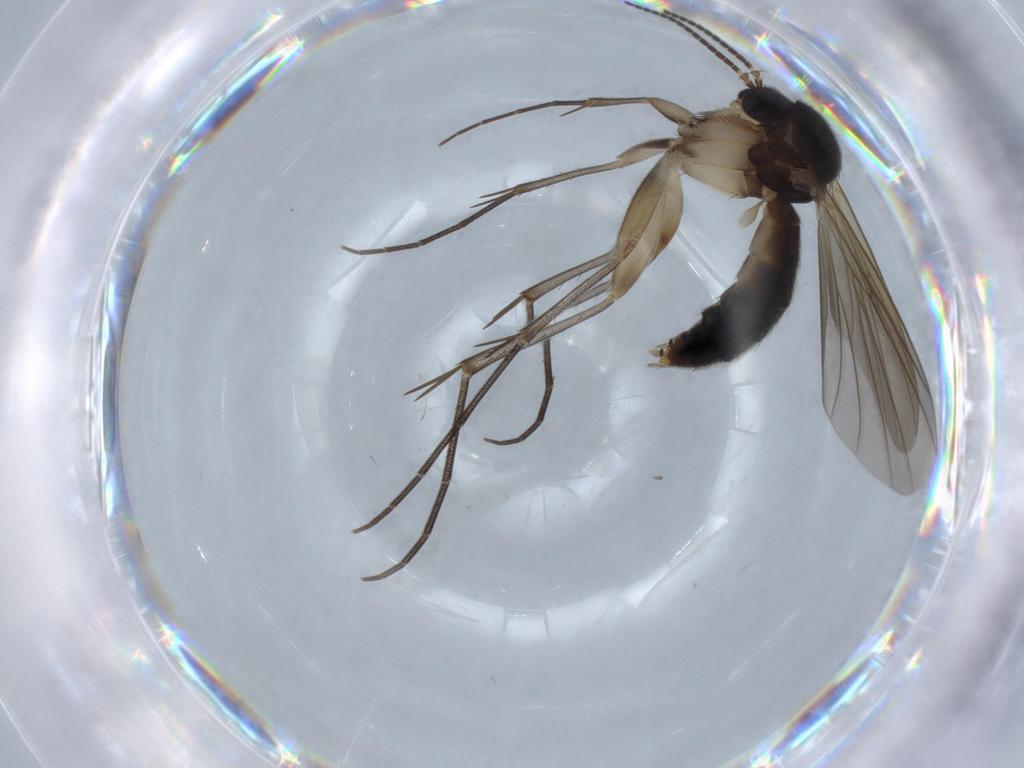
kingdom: Animalia
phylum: Arthropoda
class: Insecta
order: Diptera
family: Mycetophilidae
